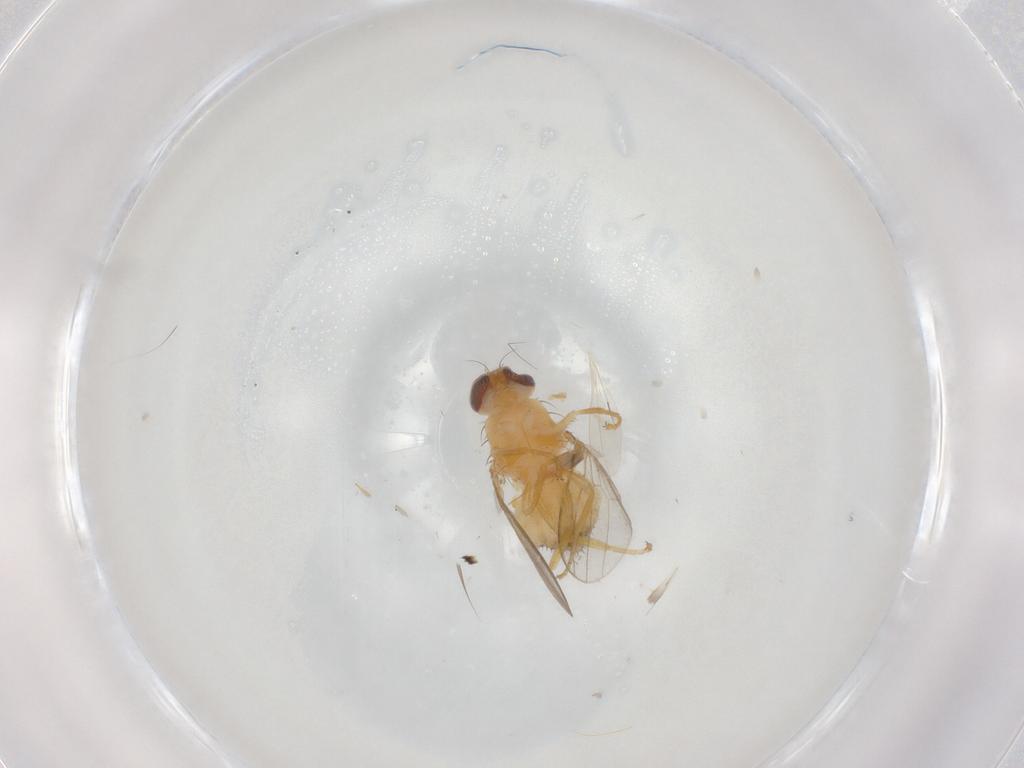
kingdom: Animalia
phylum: Arthropoda
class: Insecta
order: Diptera
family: Chyromyidae
